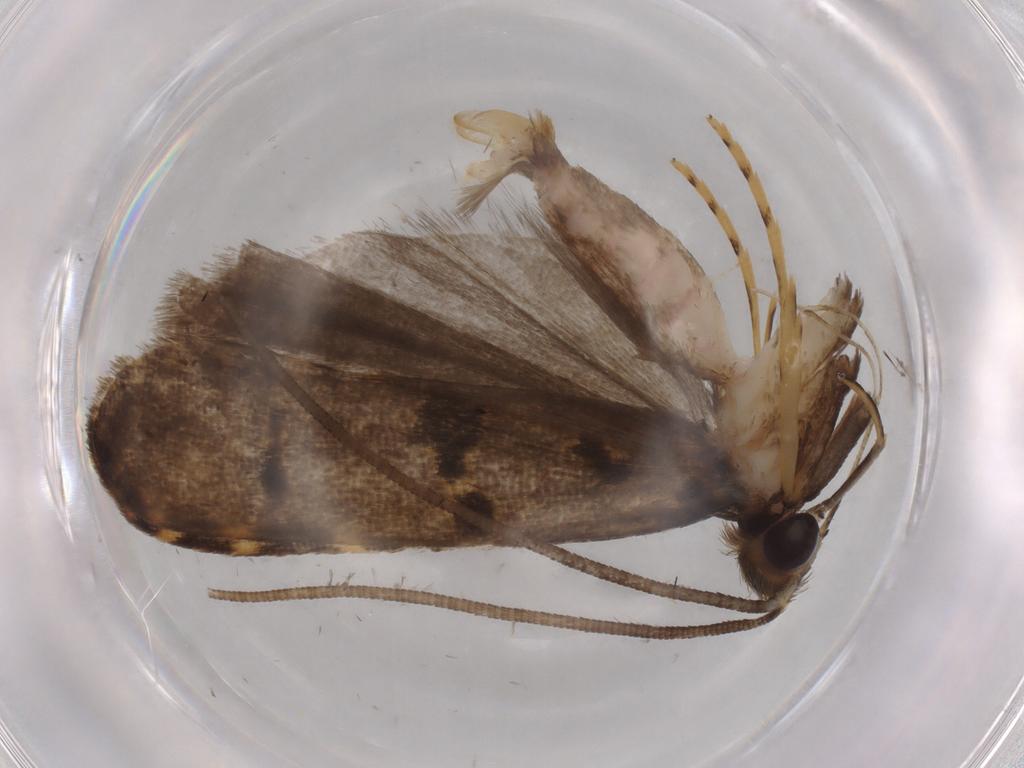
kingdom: Animalia
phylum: Arthropoda
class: Insecta
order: Lepidoptera
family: Cosmopterigidae
